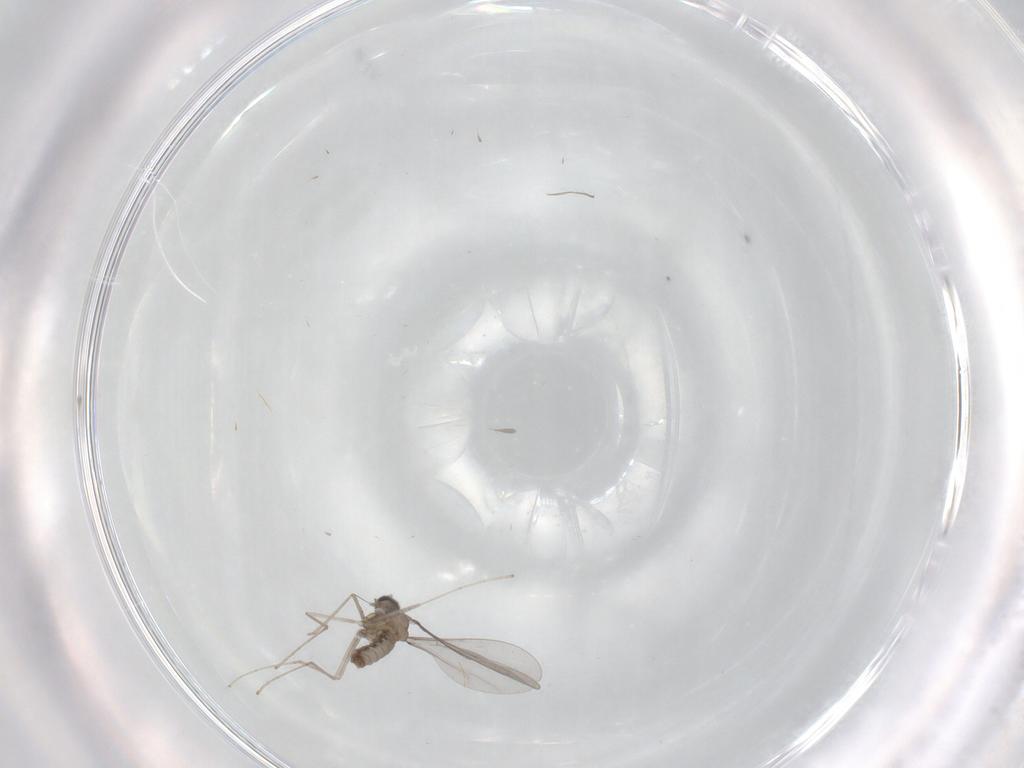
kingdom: Animalia
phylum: Arthropoda
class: Insecta
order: Diptera
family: Cecidomyiidae
